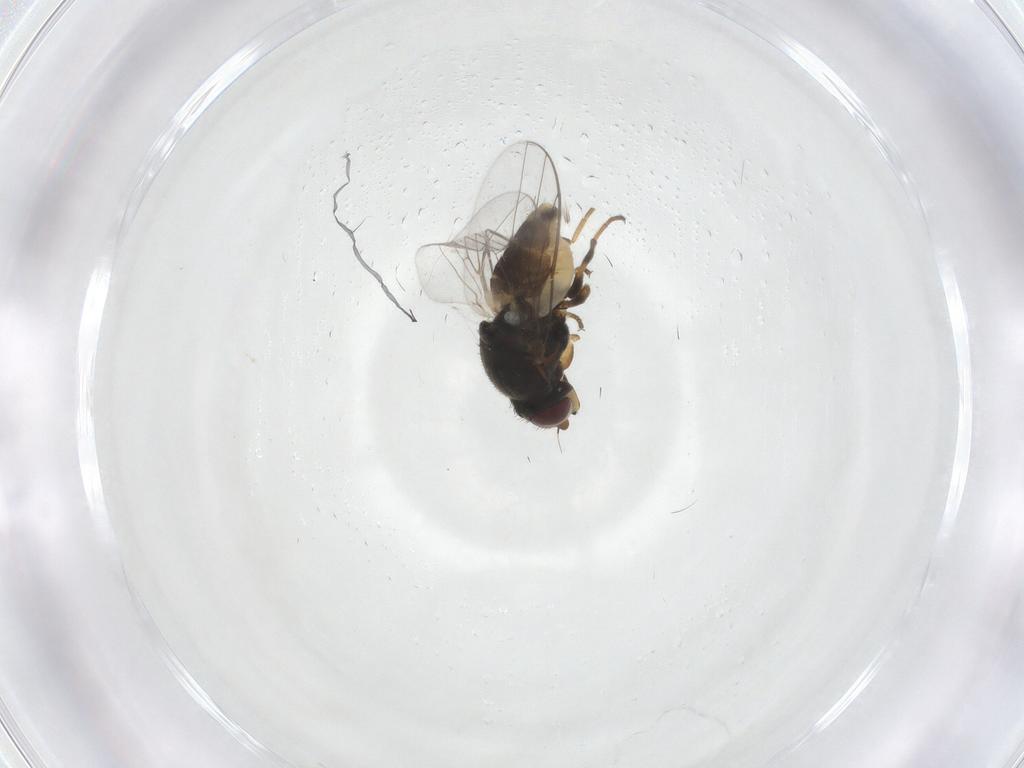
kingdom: Animalia
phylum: Arthropoda
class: Insecta
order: Diptera
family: Chloropidae
